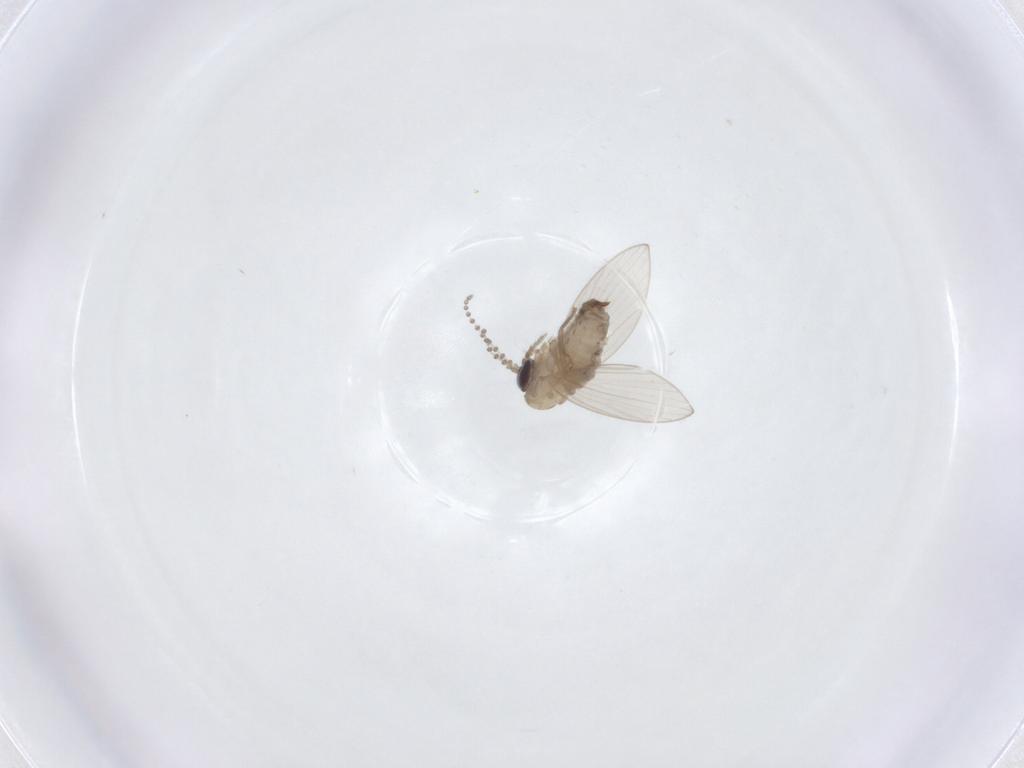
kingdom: Animalia
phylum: Arthropoda
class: Insecta
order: Diptera
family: Psychodidae
